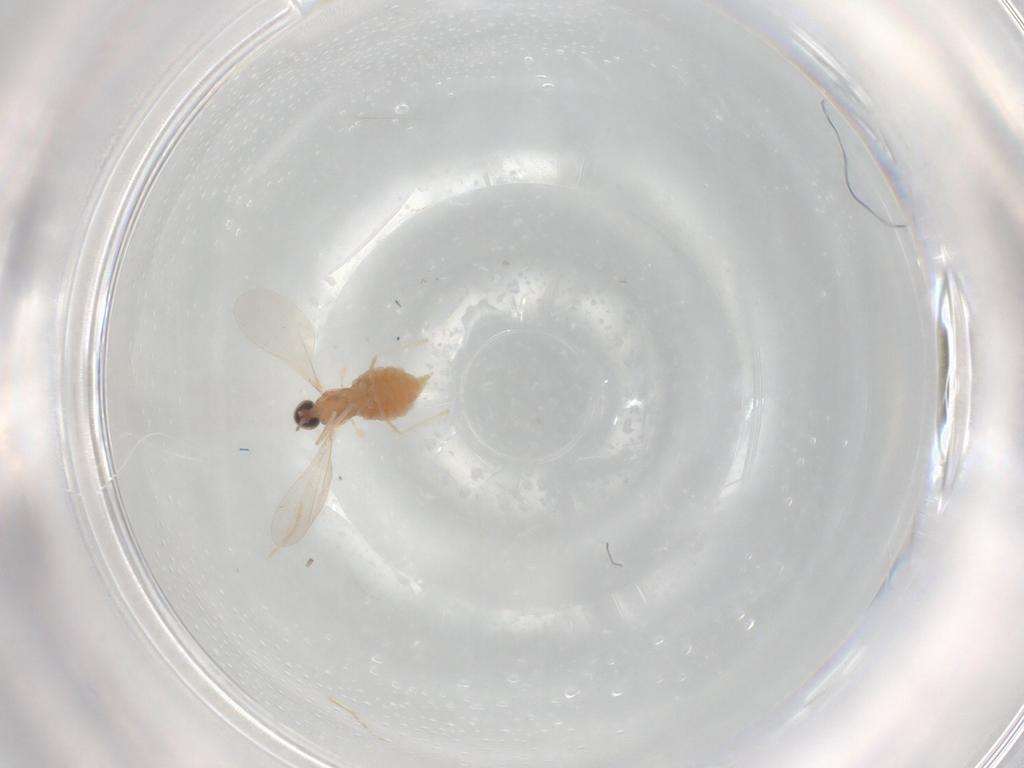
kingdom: Animalia
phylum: Arthropoda
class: Insecta
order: Diptera
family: Cecidomyiidae
